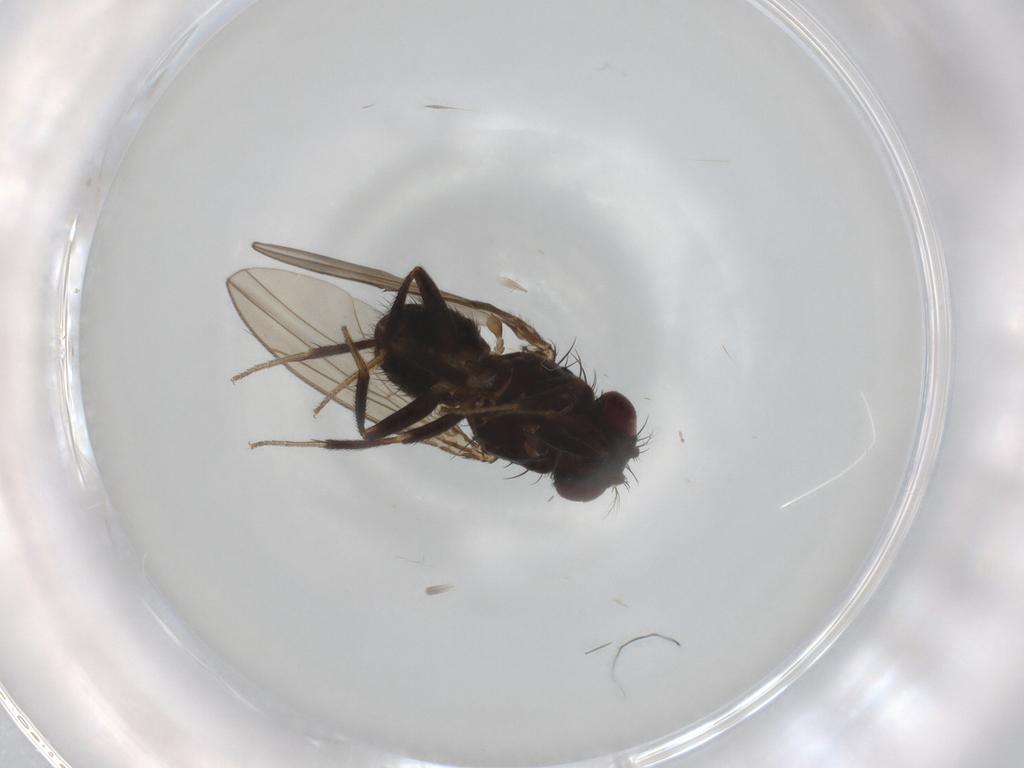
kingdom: Animalia
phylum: Arthropoda
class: Insecta
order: Diptera
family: Drosophilidae
